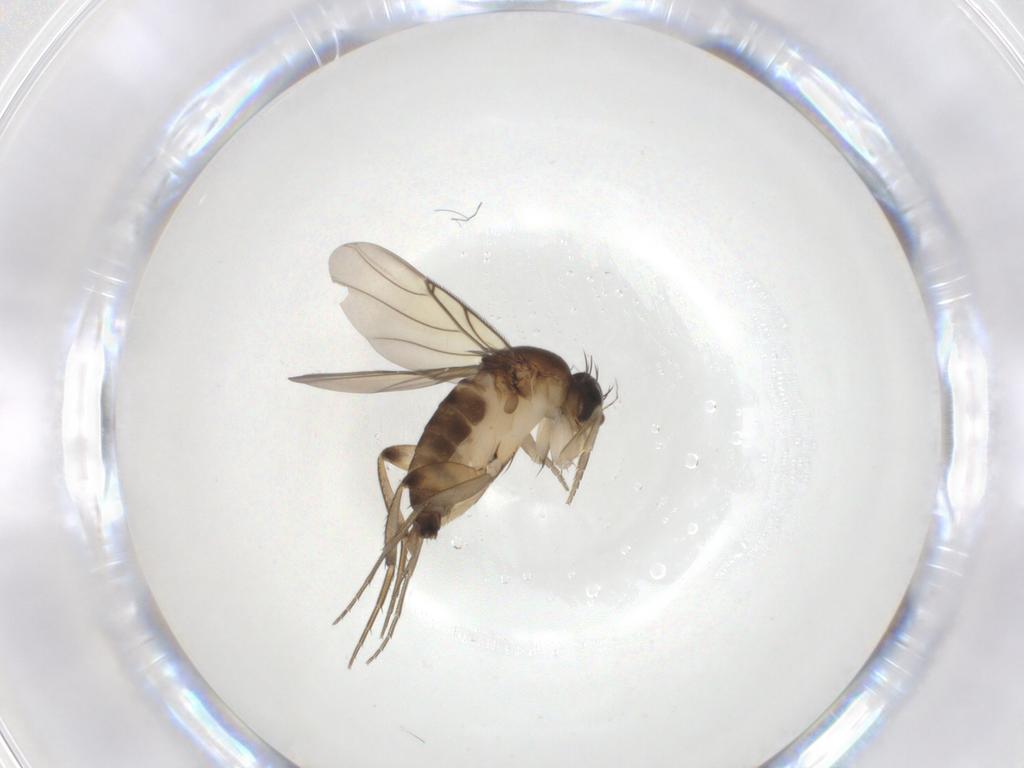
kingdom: Animalia
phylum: Arthropoda
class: Insecta
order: Diptera
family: Phoridae
